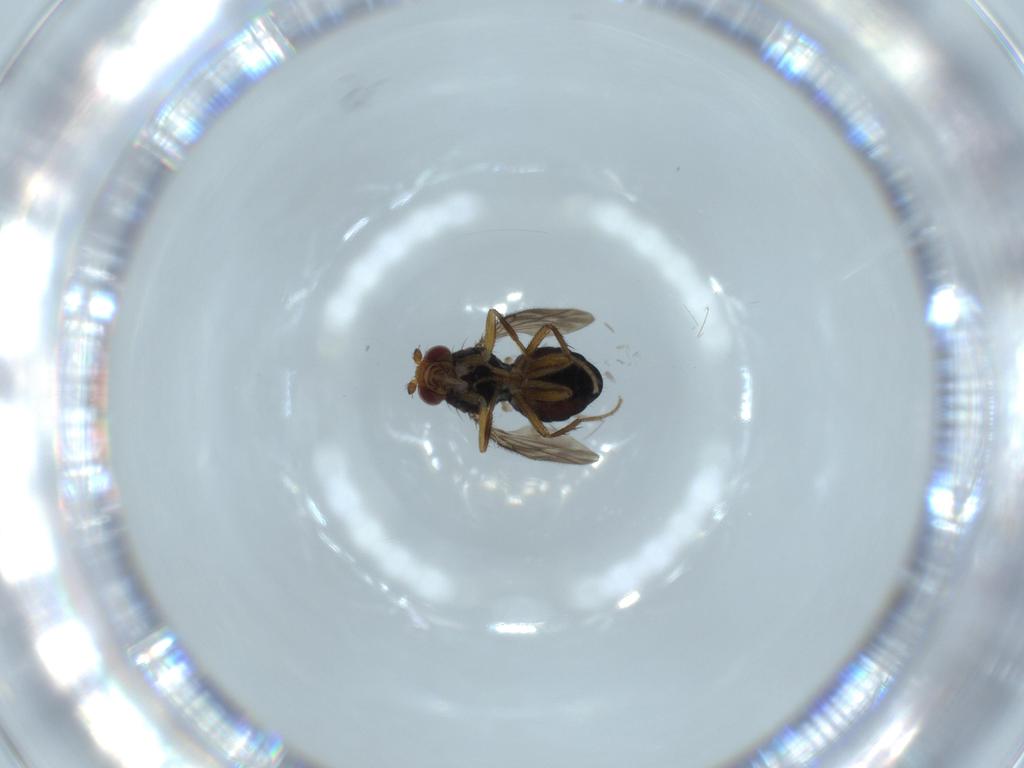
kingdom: Animalia
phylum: Arthropoda
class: Insecta
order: Diptera
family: Sphaeroceridae
